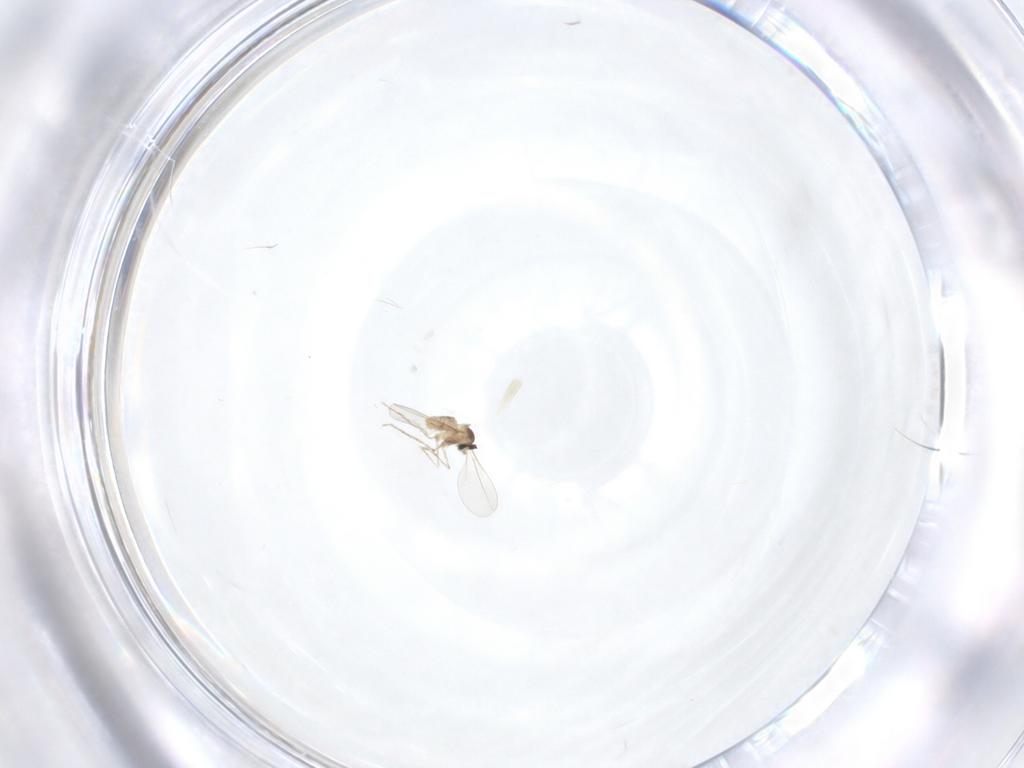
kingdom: Animalia
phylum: Arthropoda
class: Insecta
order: Diptera
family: Cecidomyiidae
